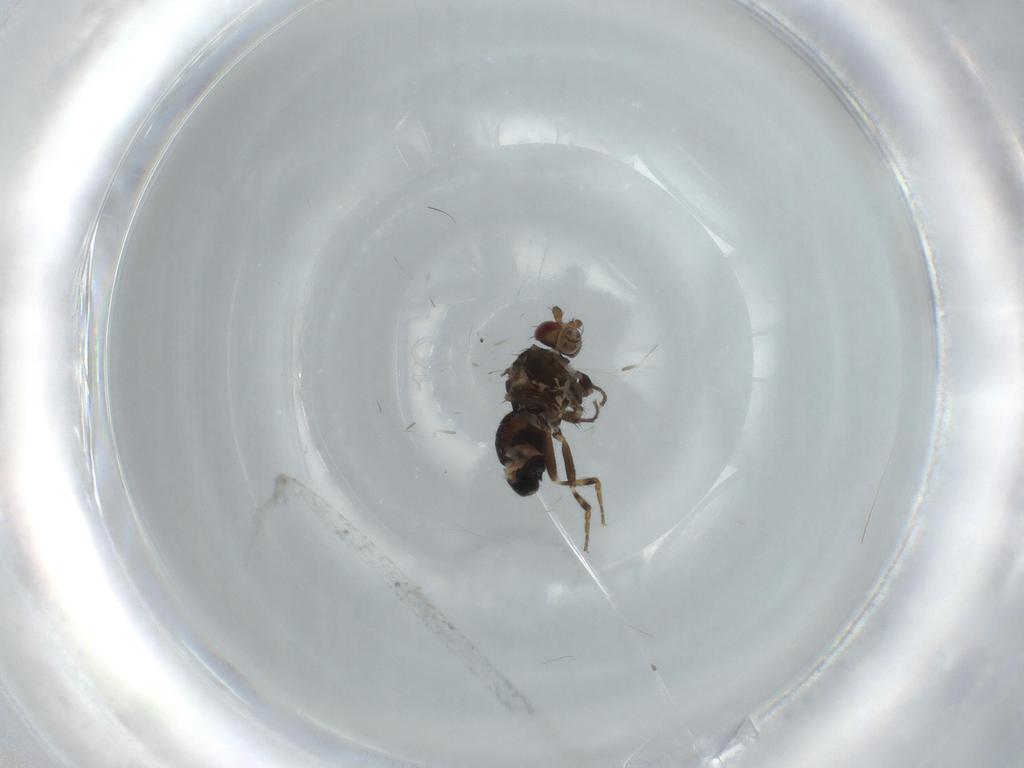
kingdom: Animalia
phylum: Arthropoda
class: Insecta
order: Diptera
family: Sphaeroceridae
